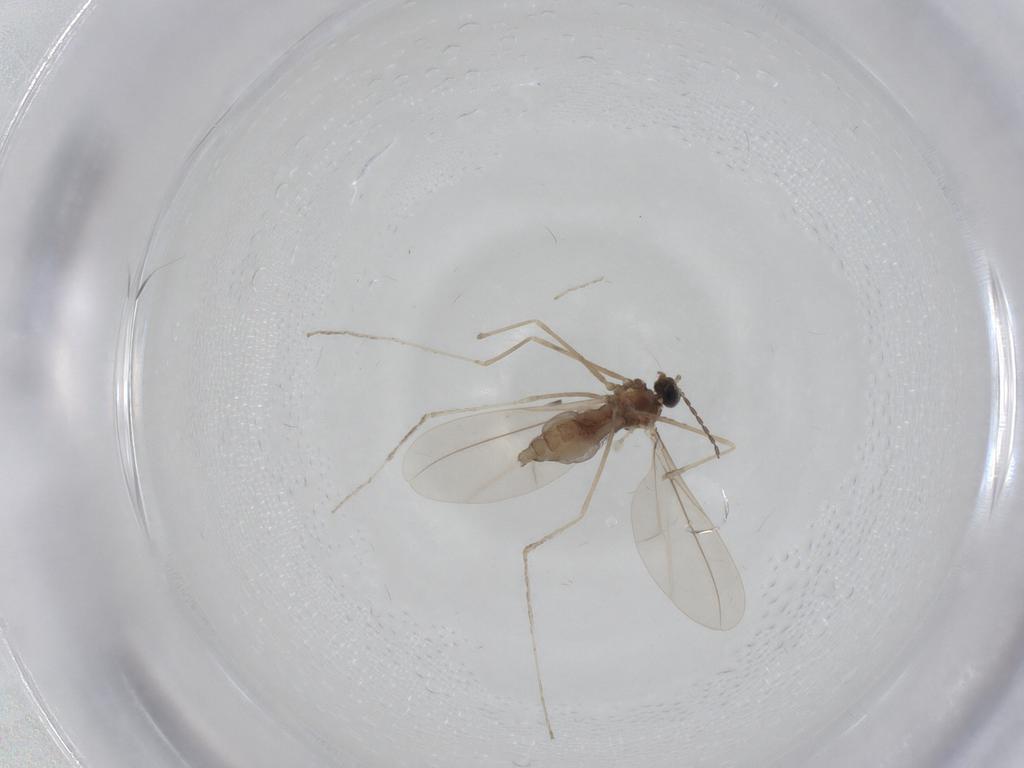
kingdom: Animalia
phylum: Arthropoda
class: Insecta
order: Diptera
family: Cecidomyiidae
